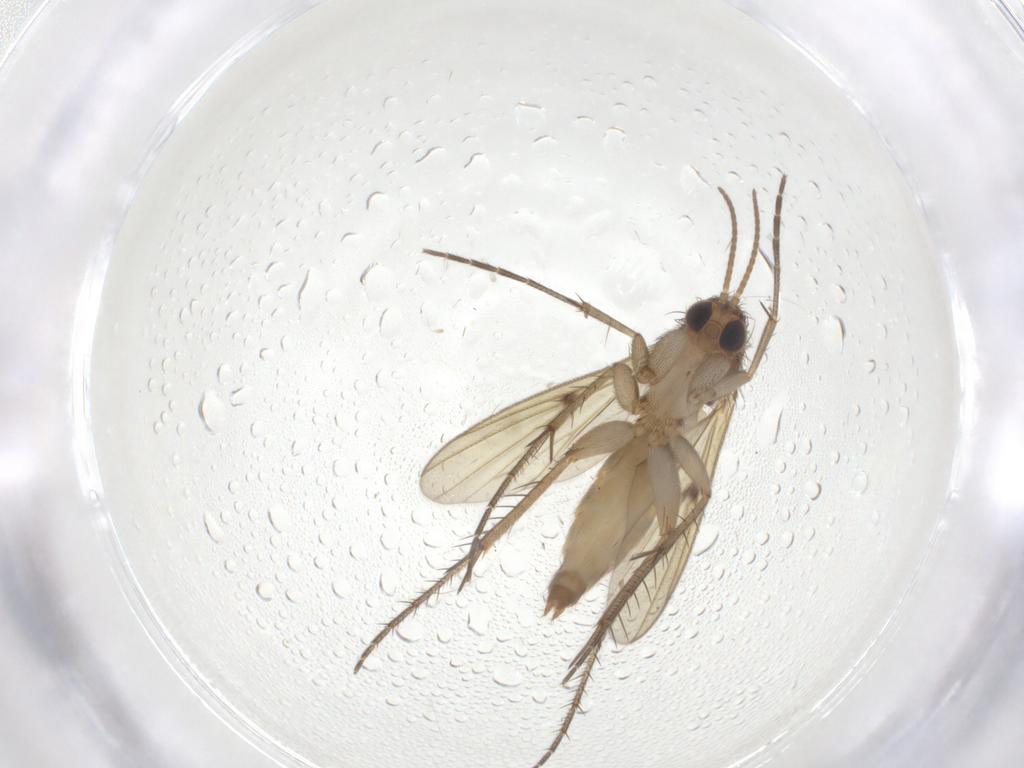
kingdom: Animalia
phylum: Arthropoda
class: Insecta
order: Diptera
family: Mycetophilidae
